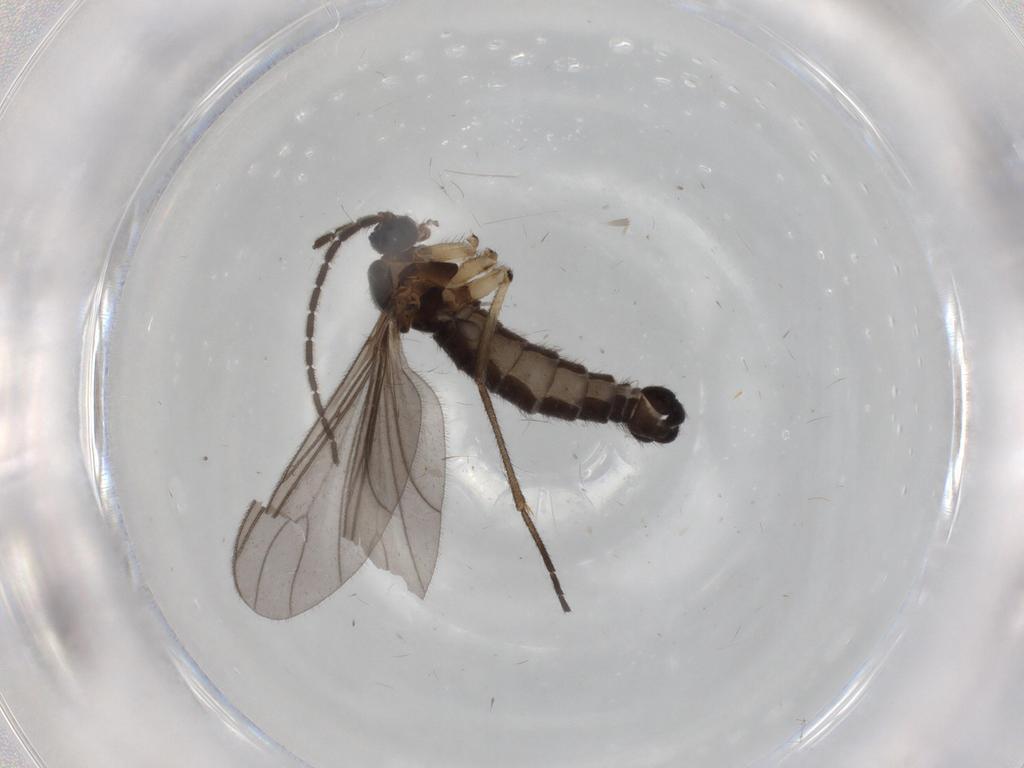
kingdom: Animalia
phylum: Arthropoda
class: Insecta
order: Diptera
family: Sciaridae
